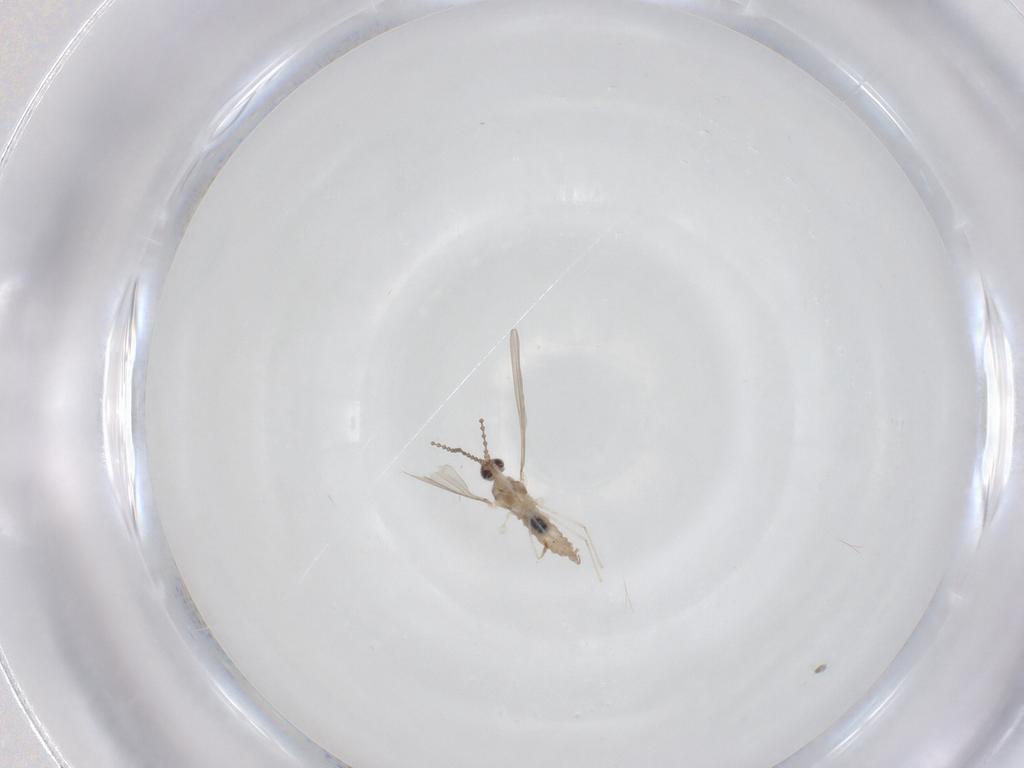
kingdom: Animalia
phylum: Arthropoda
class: Insecta
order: Diptera
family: Cecidomyiidae
